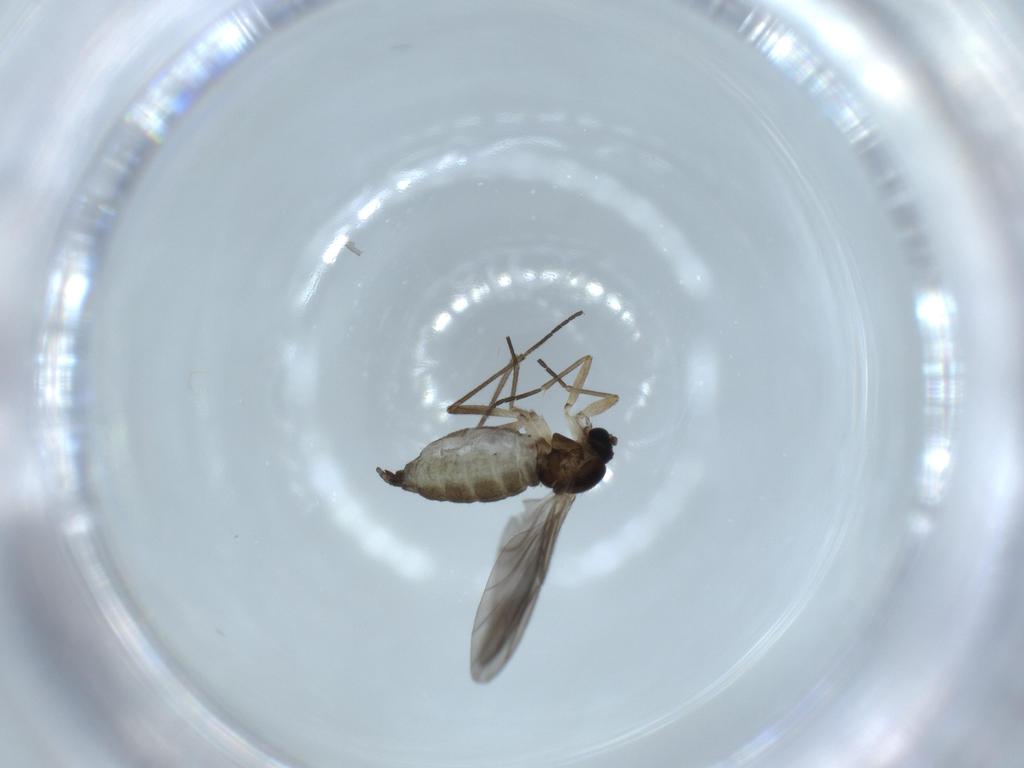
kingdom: Animalia
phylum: Arthropoda
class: Insecta
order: Diptera
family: Sciaridae
